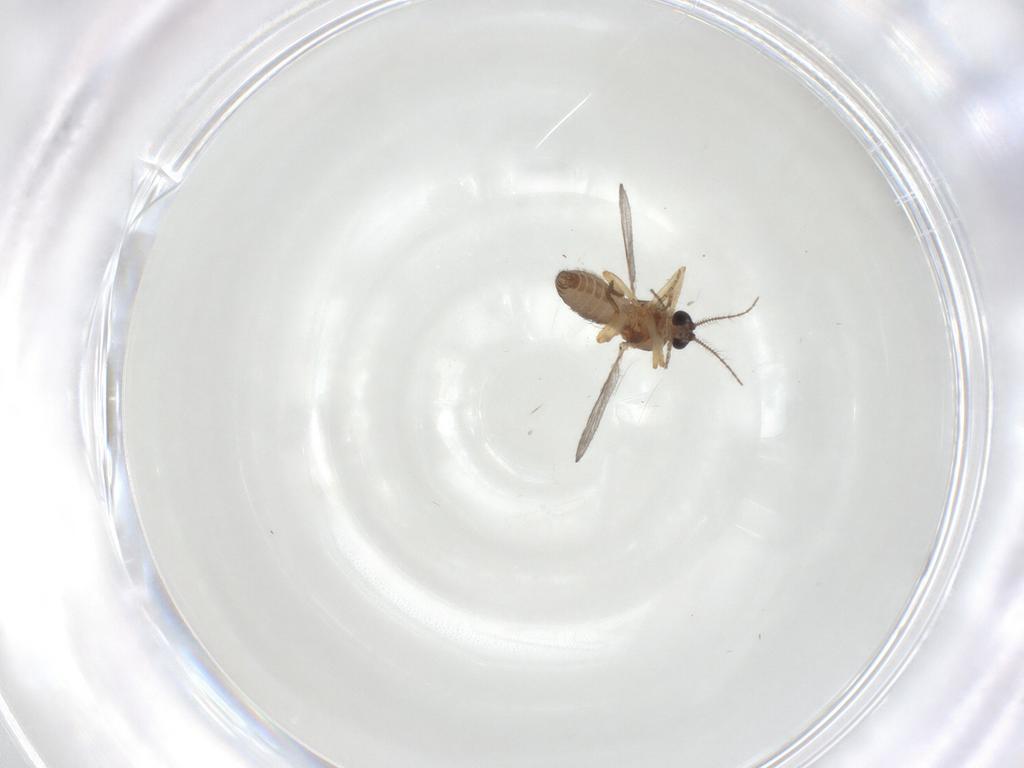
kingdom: Animalia
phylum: Arthropoda
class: Insecta
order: Diptera
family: Ceratopogonidae
